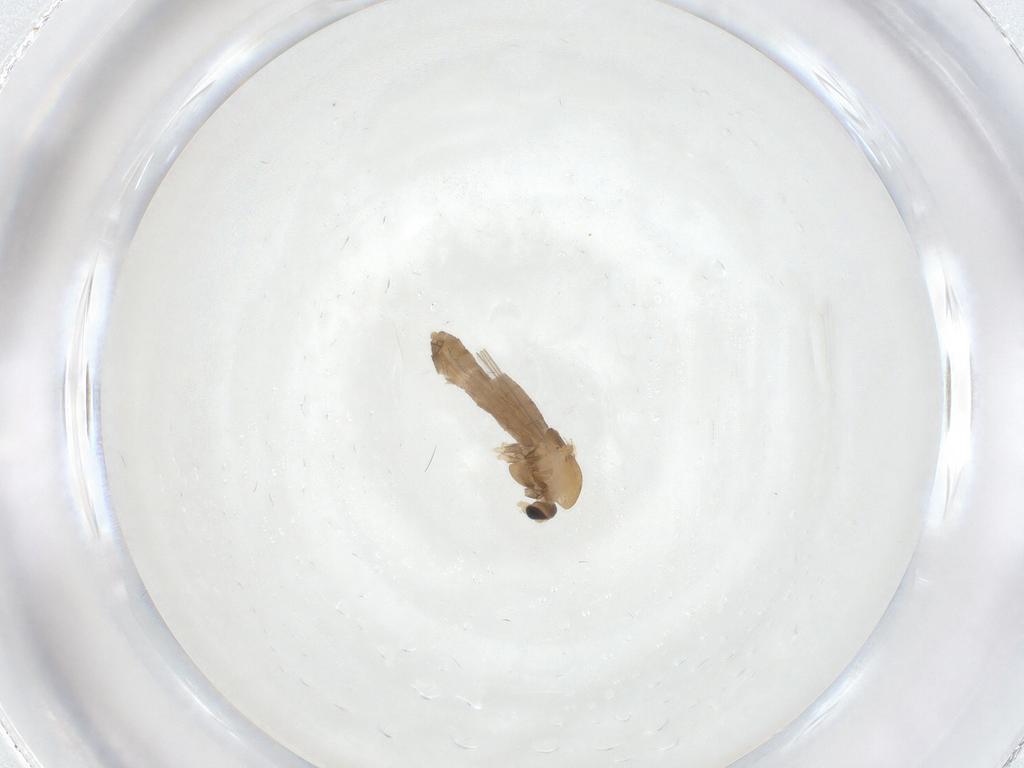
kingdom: Animalia
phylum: Arthropoda
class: Insecta
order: Diptera
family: Chironomidae
